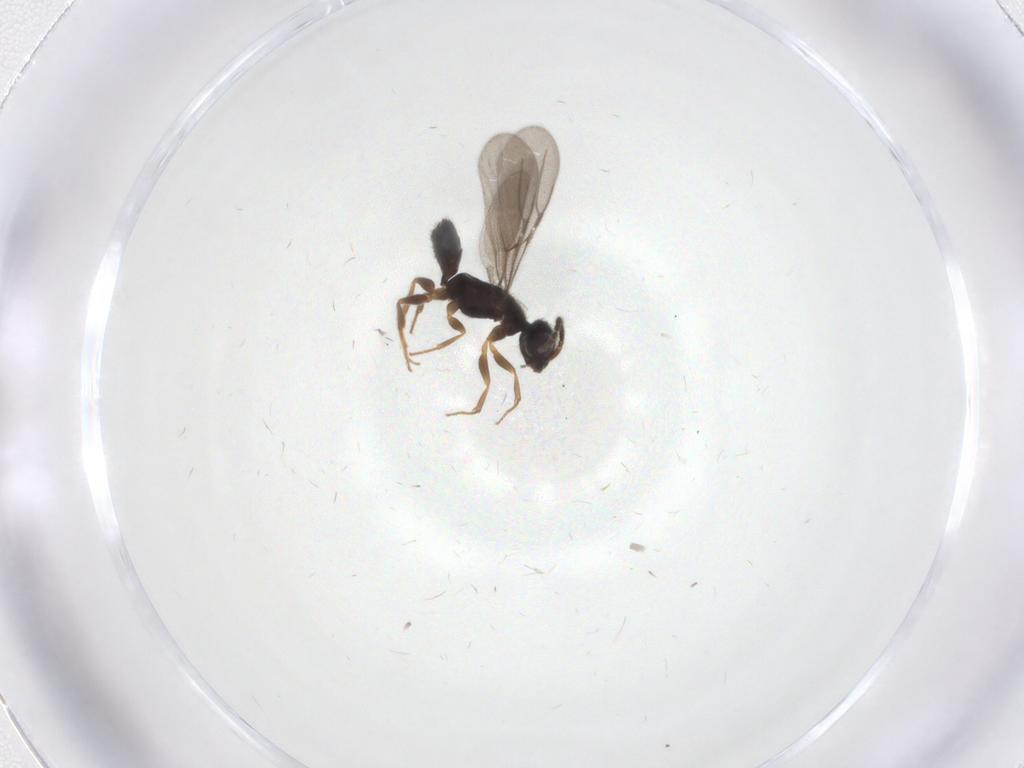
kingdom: Animalia
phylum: Arthropoda
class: Insecta
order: Hymenoptera
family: Bethylidae
